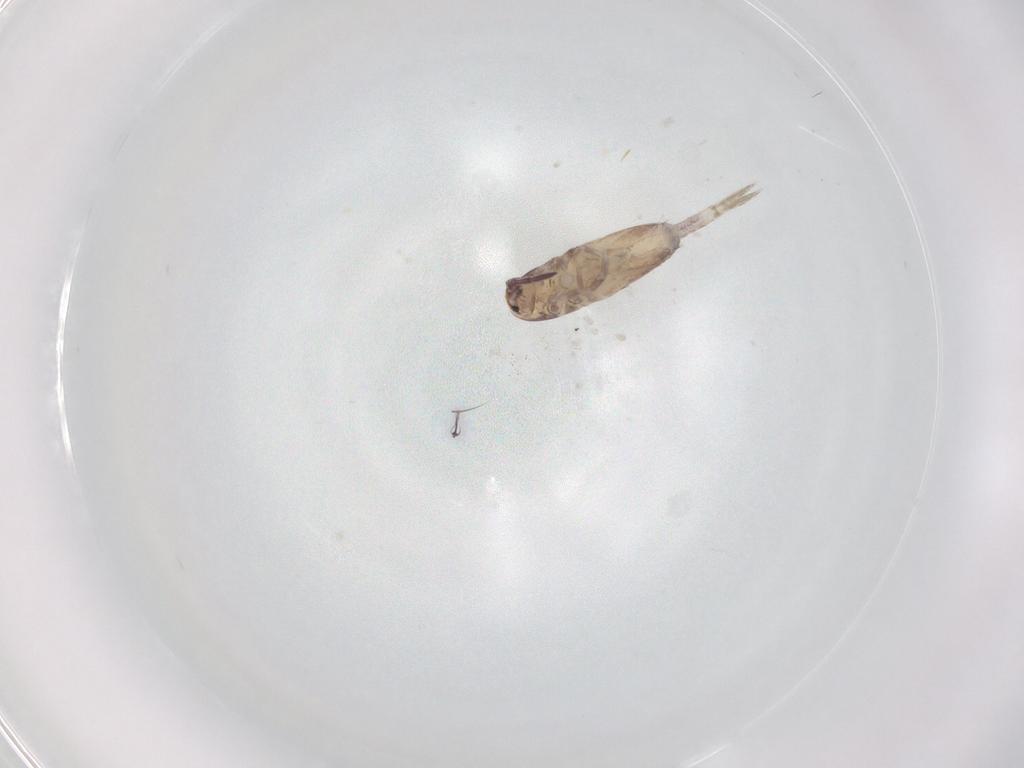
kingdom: Animalia
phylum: Arthropoda
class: Collembola
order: Entomobryomorpha
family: Entomobryidae
